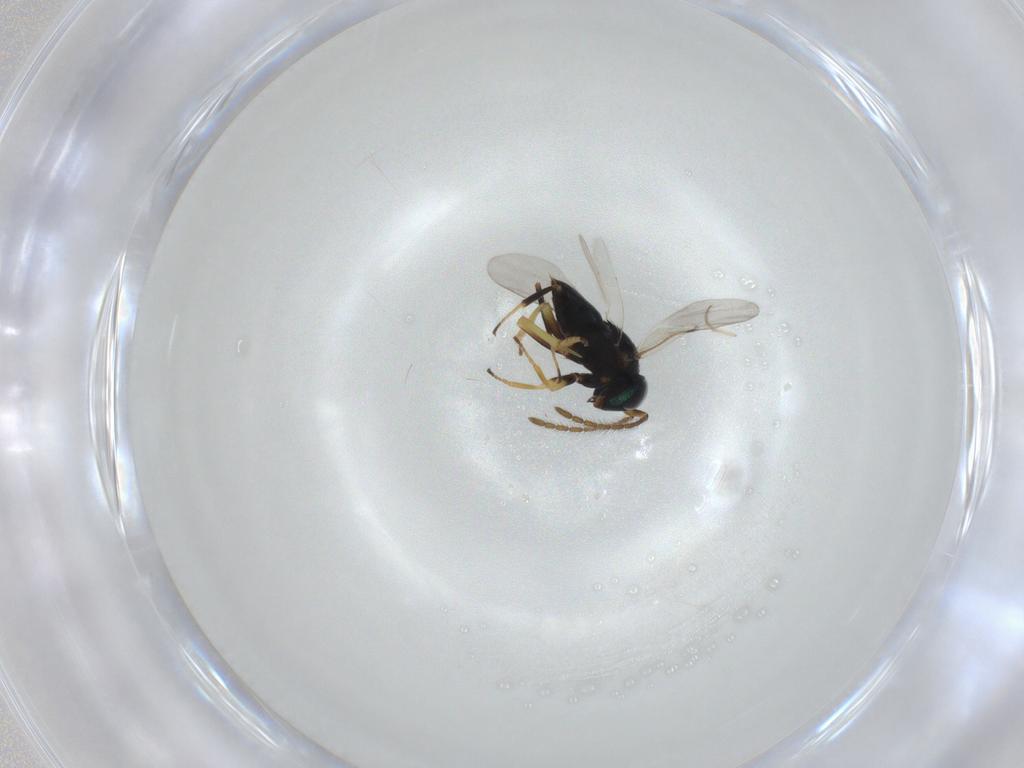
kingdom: Animalia
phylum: Arthropoda
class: Insecta
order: Hymenoptera
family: Pompilidae
